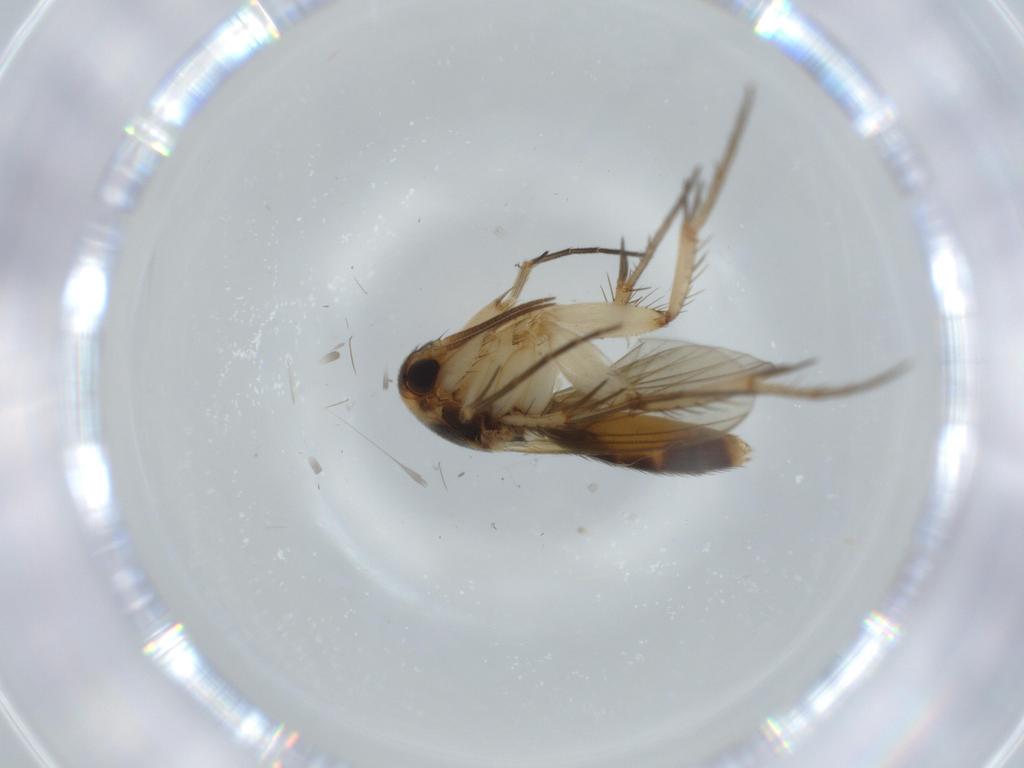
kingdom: Animalia
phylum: Arthropoda
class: Insecta
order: Diptera
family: Mycetophilidae
